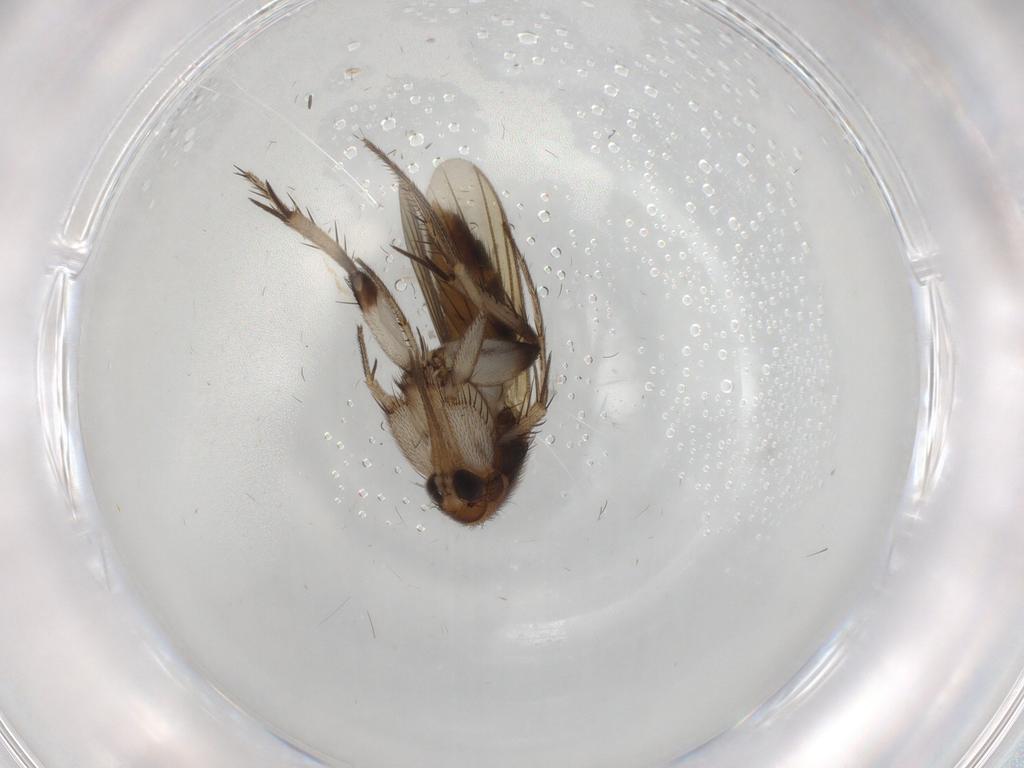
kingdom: Animalia
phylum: Arthropoda
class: Insecta
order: Diptera
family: Mycetophilidae
